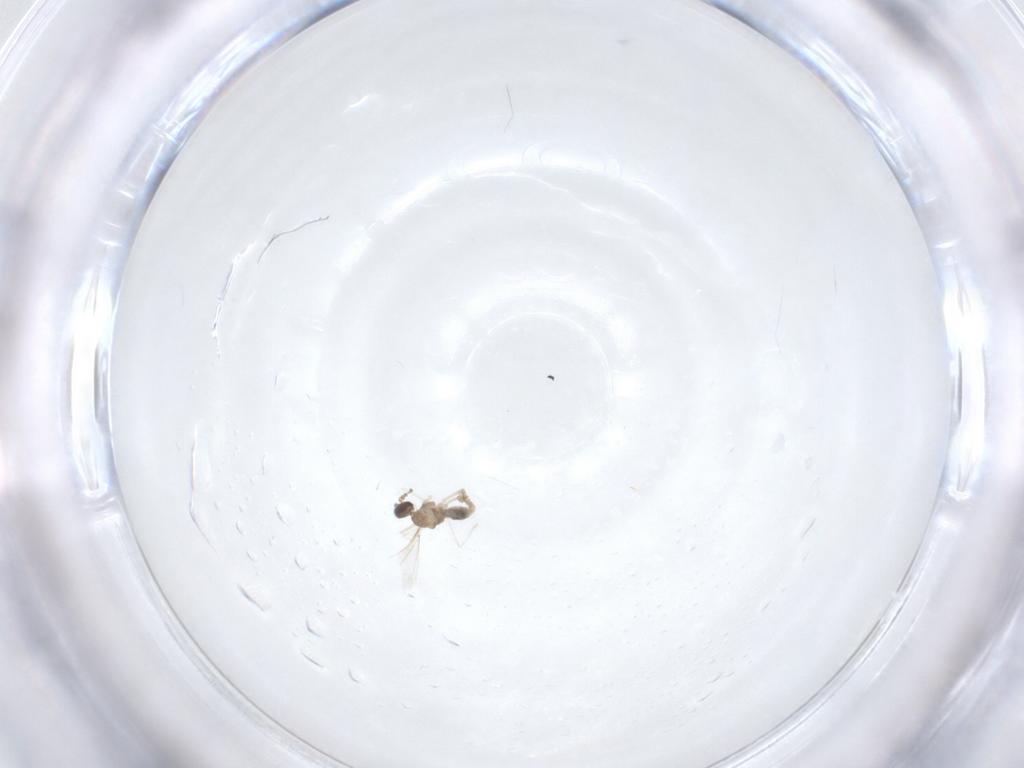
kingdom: Animalia
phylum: Arthropoda
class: Insecta
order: Diptera
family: Cecidomyiidae
